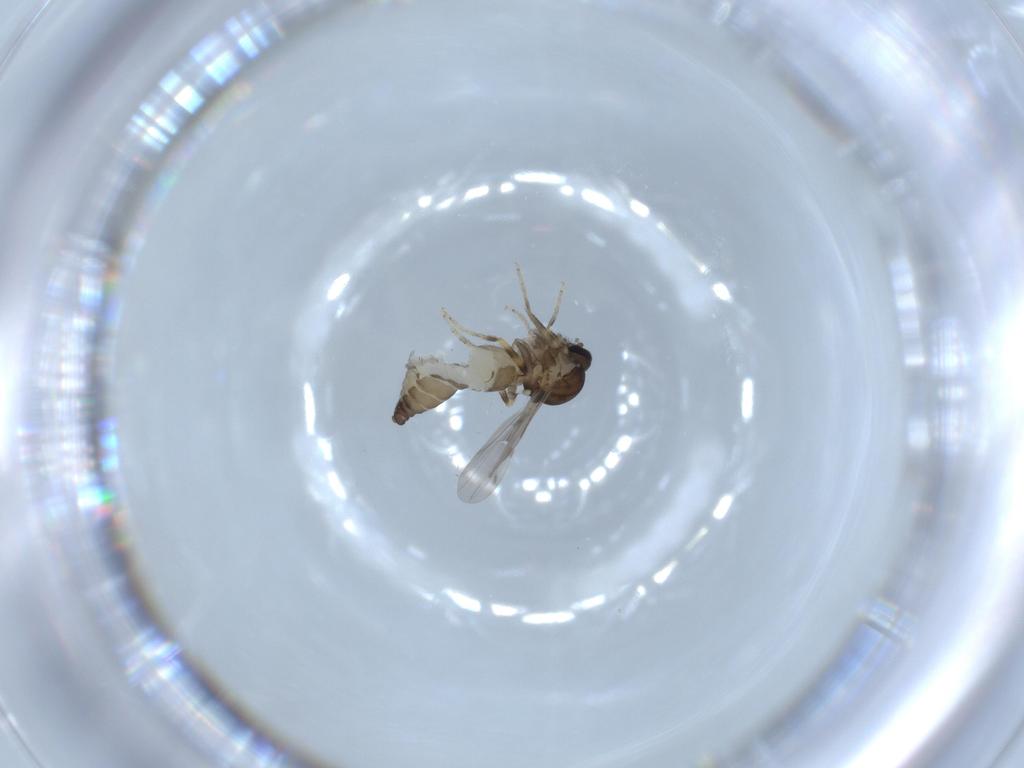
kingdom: Animalia
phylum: Arthropoda
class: Insecta
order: Diptera
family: Ceratopogonidae
